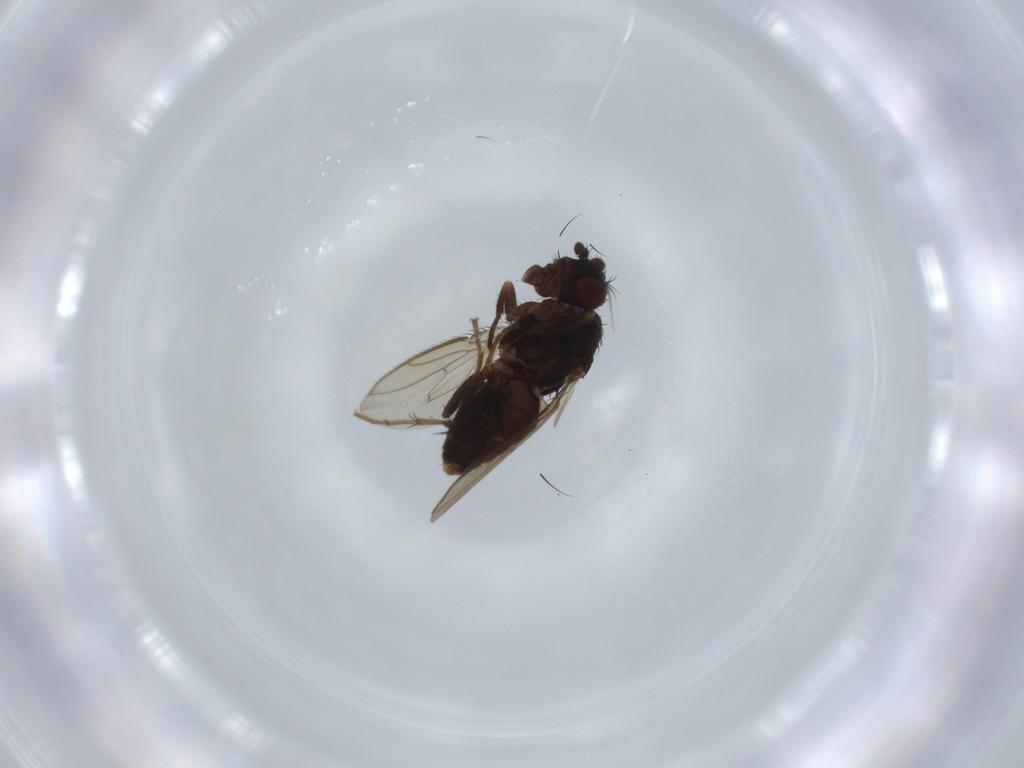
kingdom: Animalia
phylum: Arthropoda
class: Insecta
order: Diptera
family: Sphaeroceridae
